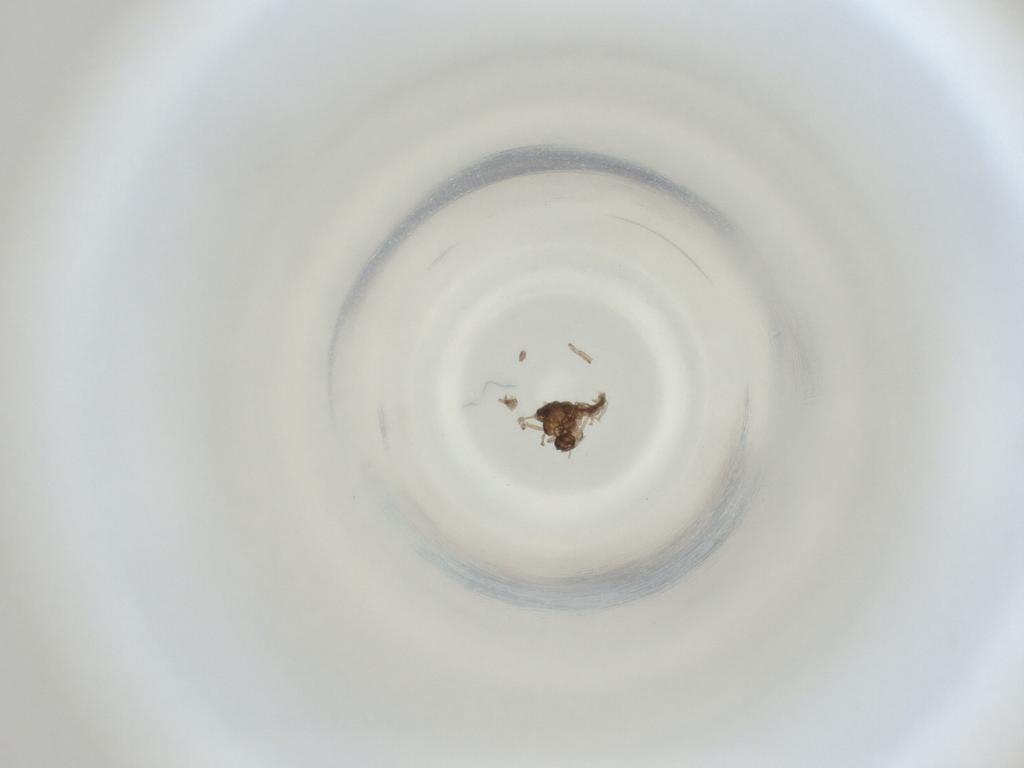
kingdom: Animalia
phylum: Arthropoda
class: Insecta
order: Diptera
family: Cecidomyiidae
